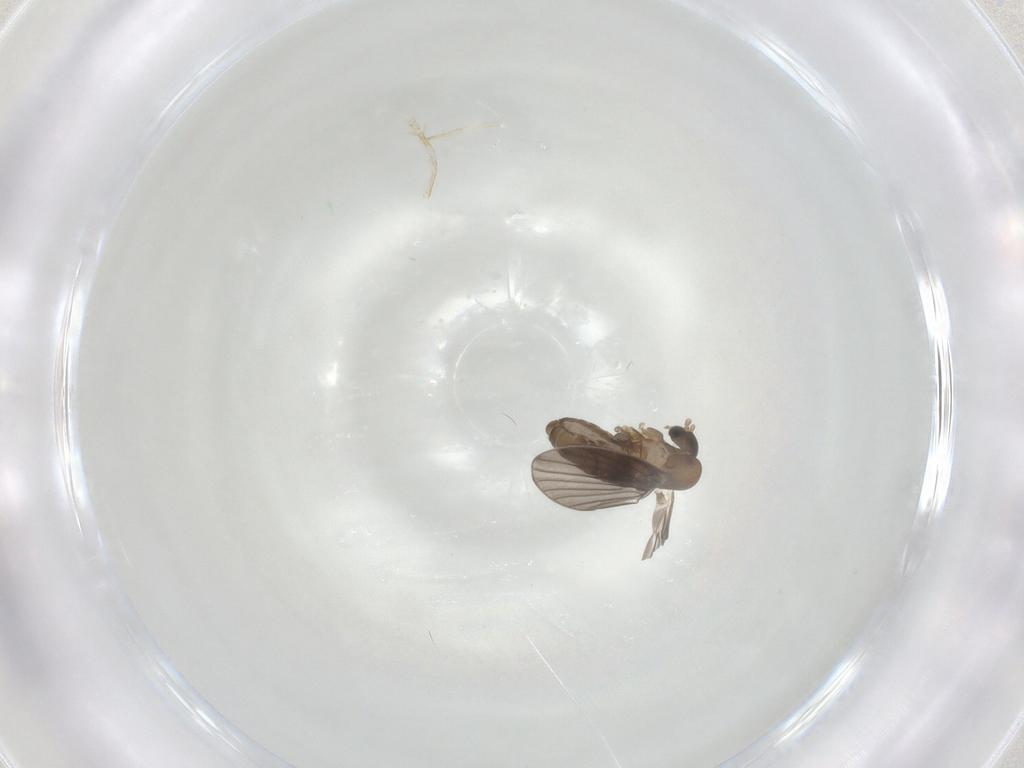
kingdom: Animalia
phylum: Arthropoda
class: Insecta
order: Diptera
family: Psychodidae
